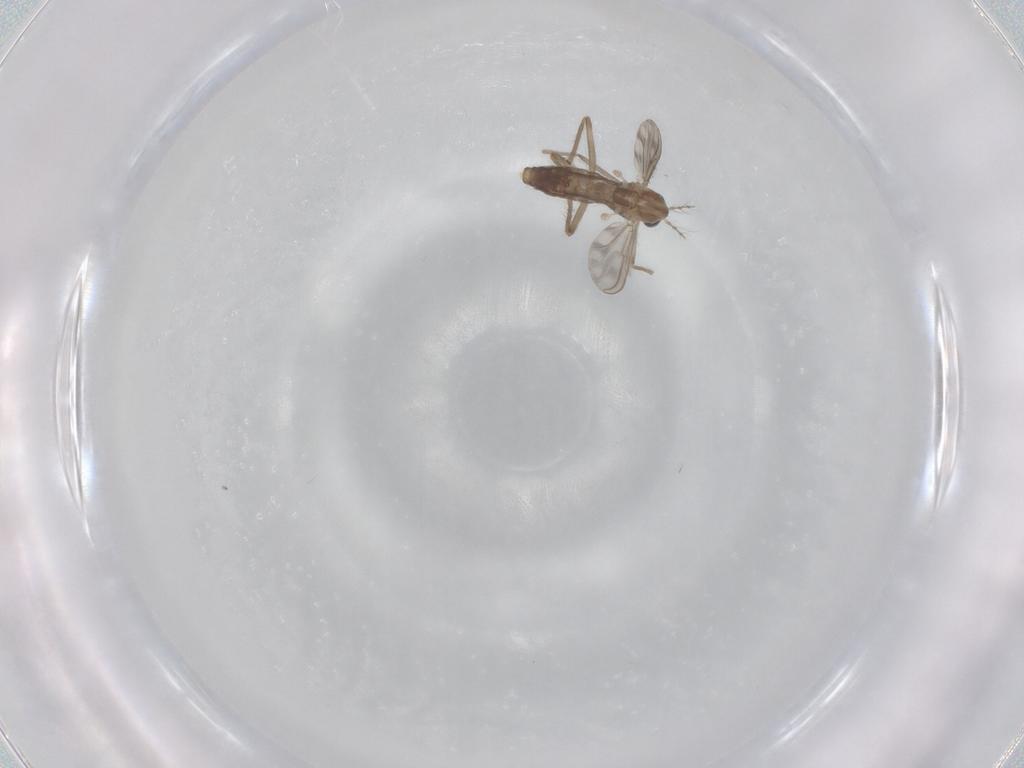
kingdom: Animalia
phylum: Arthropoda
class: Insecta
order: Diptera
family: Chironomidae
